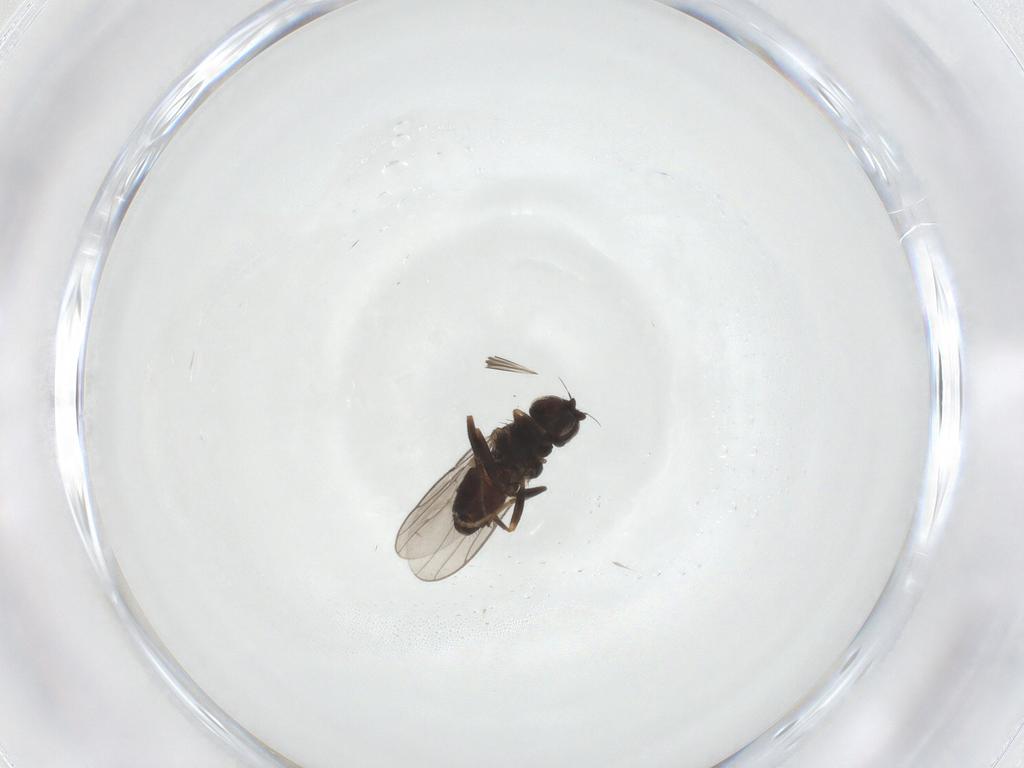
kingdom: Animalia
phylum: Arthropoda
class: Insecta
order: Diptera
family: Chloropidae
